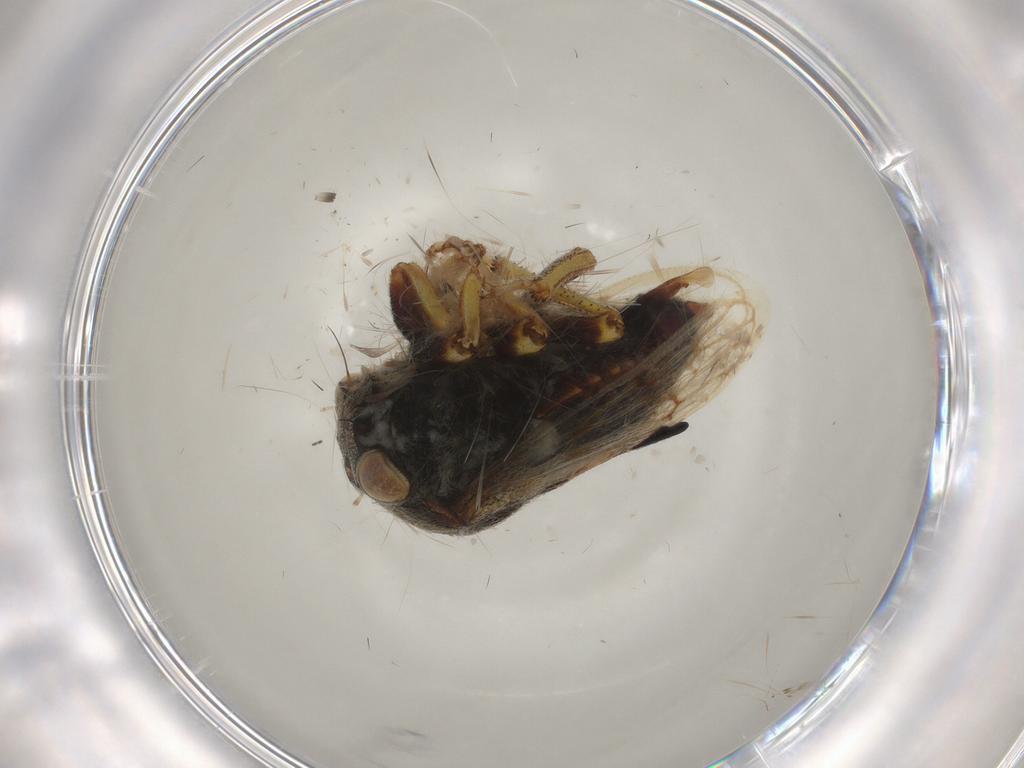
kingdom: Animalia
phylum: Arthropoda
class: Insecta
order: Hemiptera
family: Membracidae
